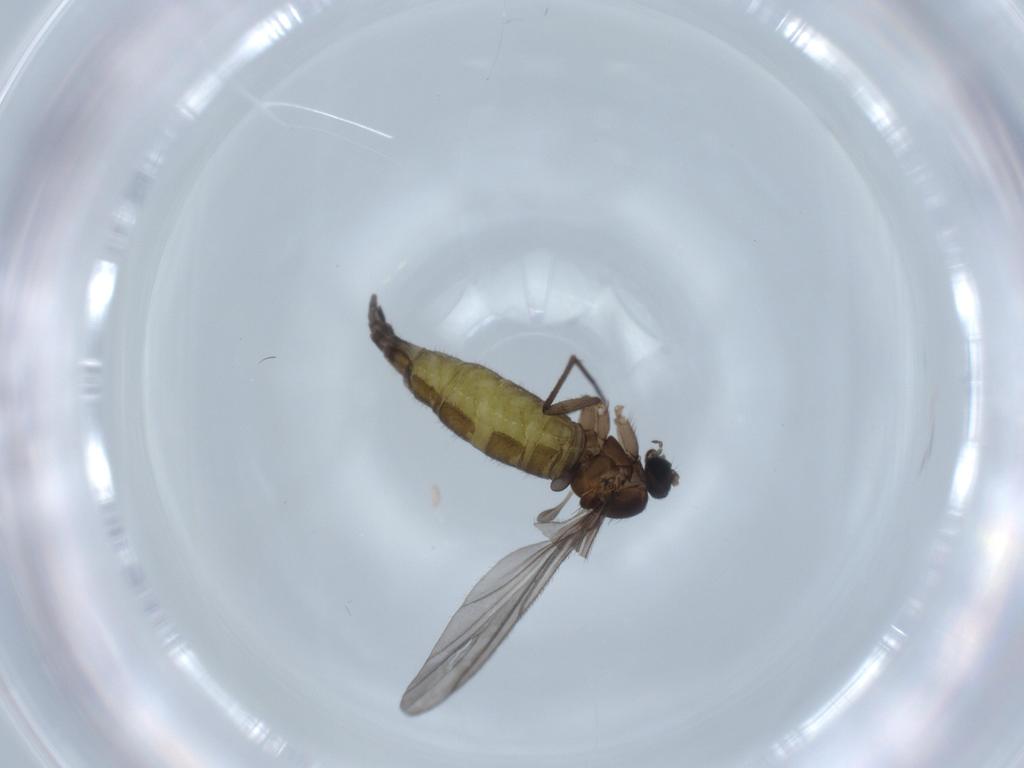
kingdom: Animalia
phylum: Arthropoda
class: Insecta
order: Diptera
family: Sciaridae
